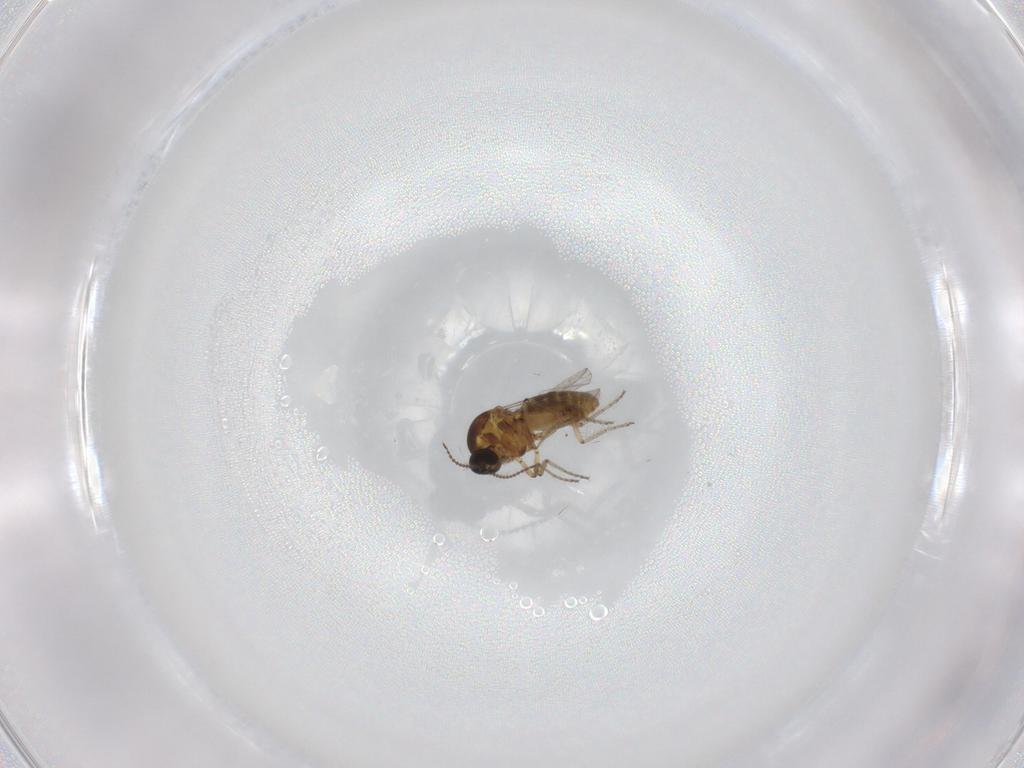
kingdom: Animalia
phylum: Arthropoda
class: Insecta
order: Diptera
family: Ceratopogonidae
